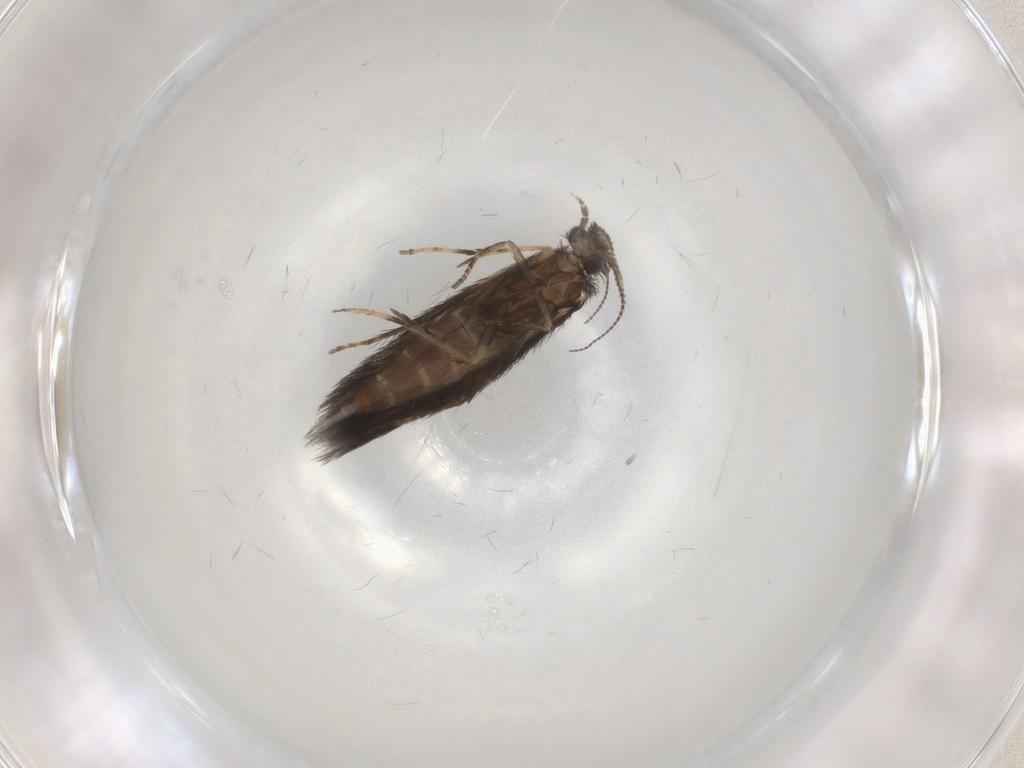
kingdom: Animalia
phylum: Arthropoda
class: Insecta
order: Trichoptera
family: Hydroptilidae
